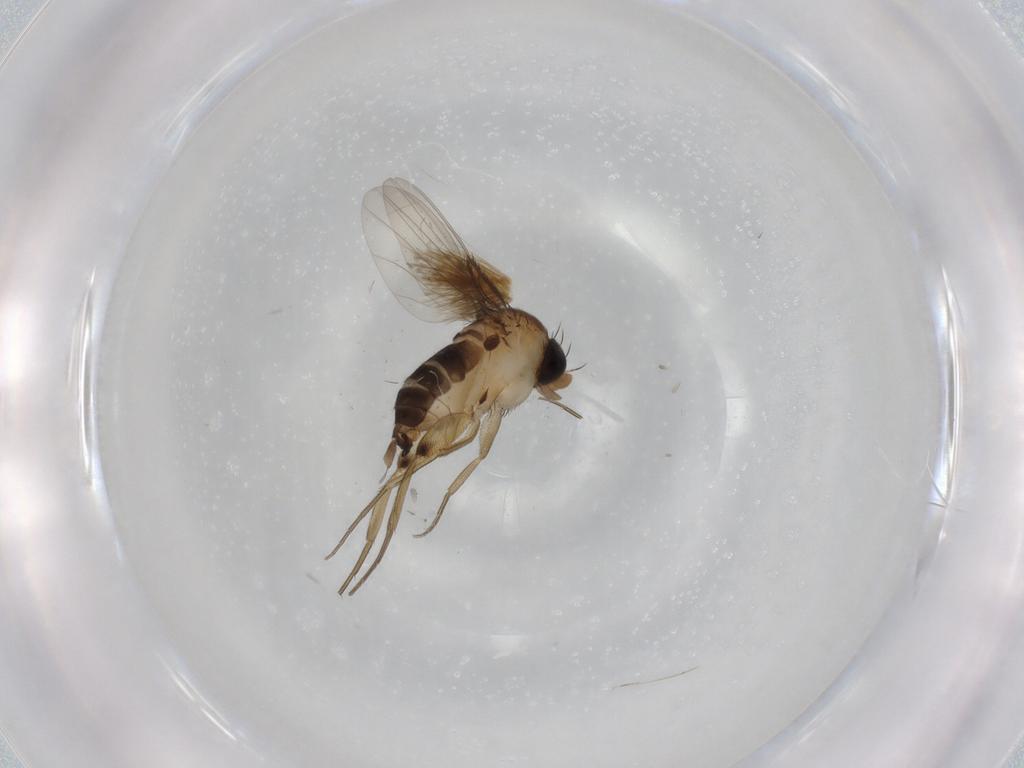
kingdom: Animalia
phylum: Arthropoda
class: Insecta
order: Diptera
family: Phoridae
